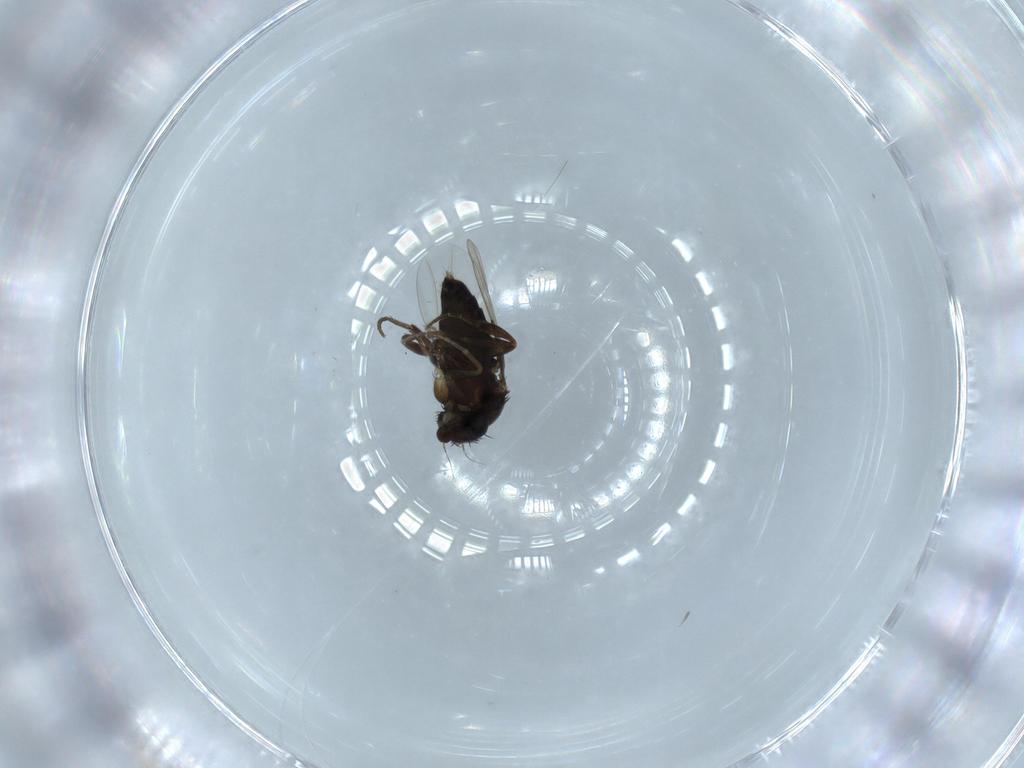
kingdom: Animalia
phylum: Arthropoda
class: Insecta
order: Diptera
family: Phoridae
